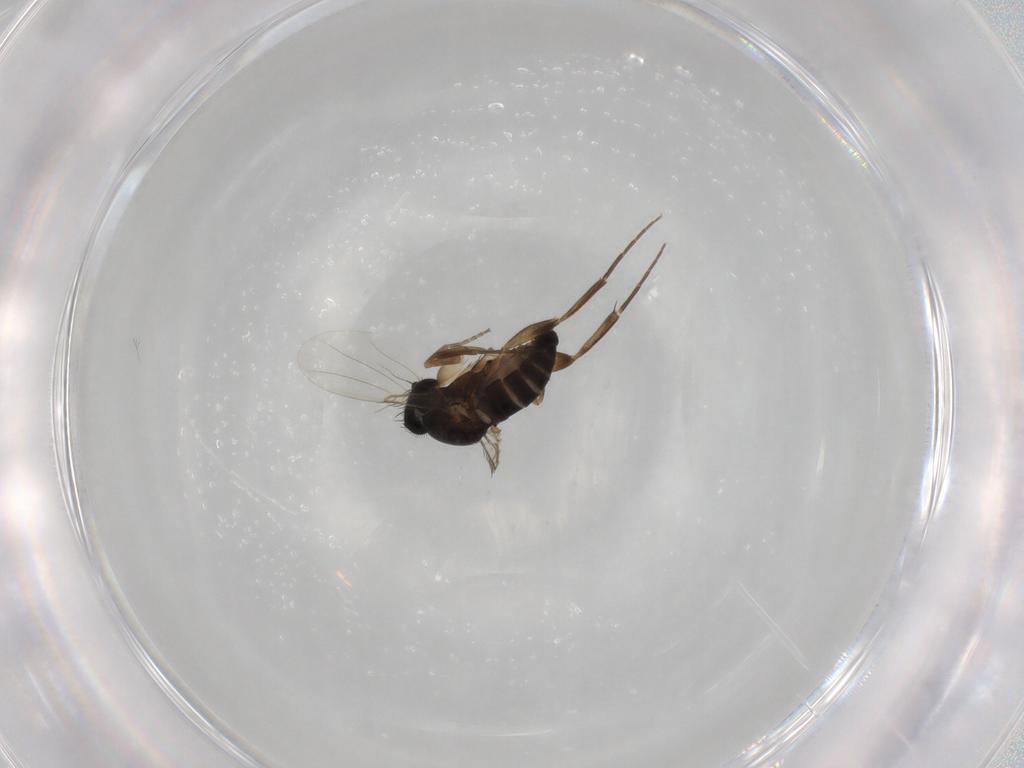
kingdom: Animalia
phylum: Arthropoda
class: Insecta
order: Diptera
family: Phoridae
